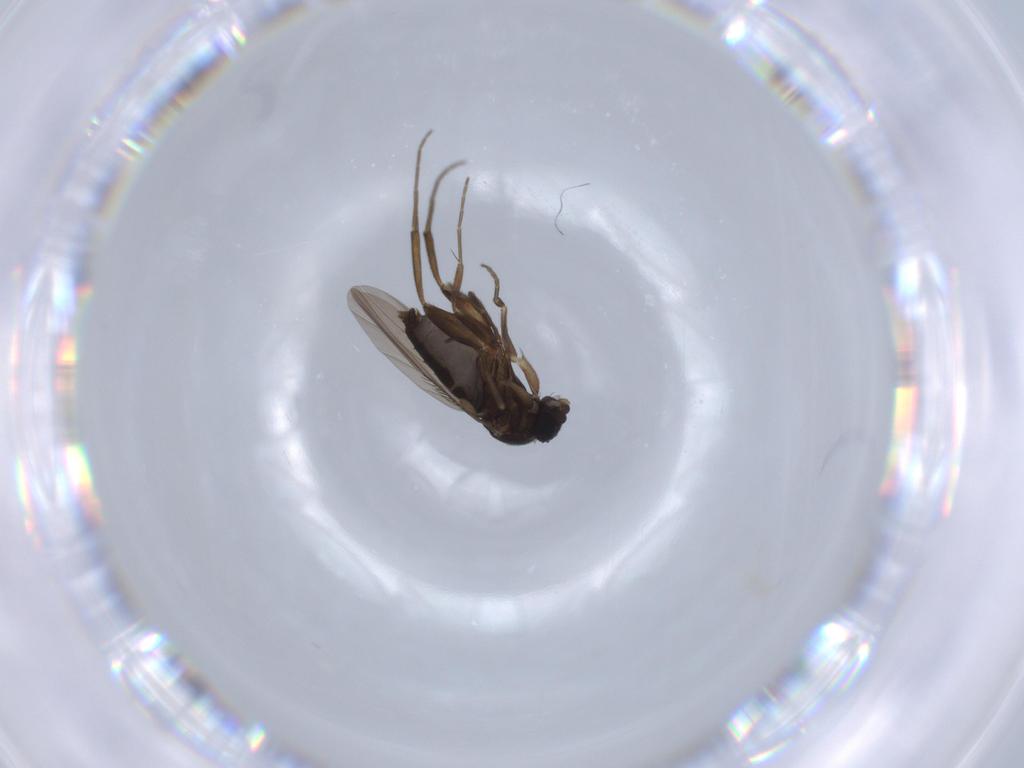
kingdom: Animalia
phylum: Arthropoda
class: Insecta
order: Diptera
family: Phoridae
